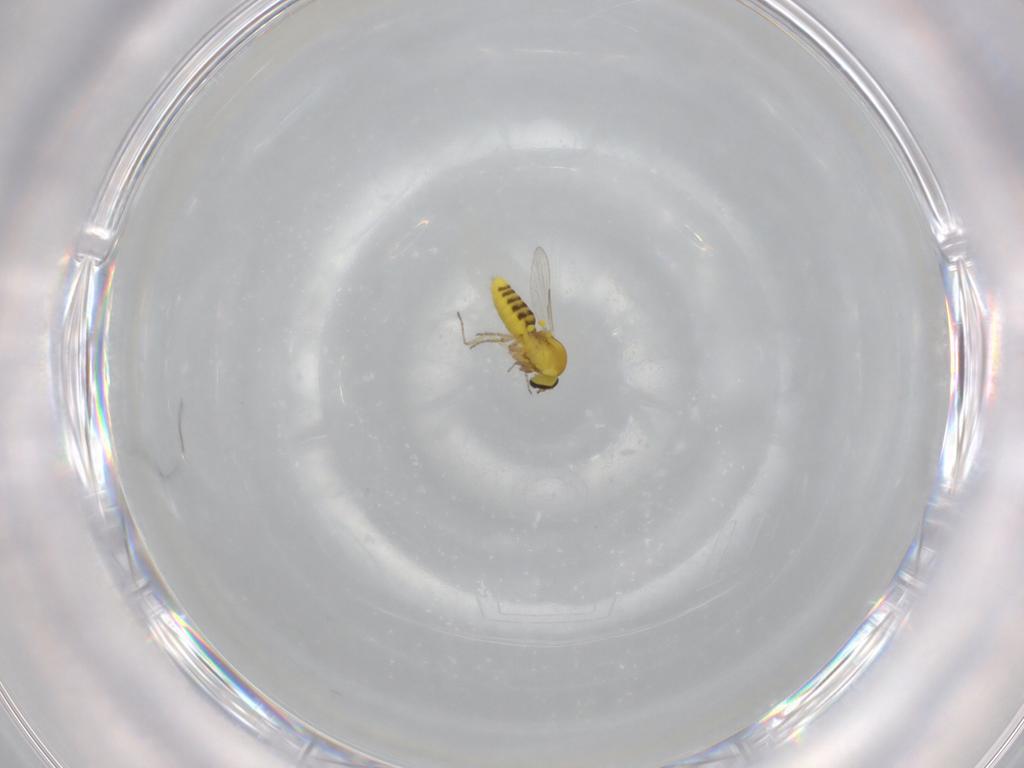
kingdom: Animalia
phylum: Arthropoda
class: Insecta
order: Diptera
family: Ceratopogonidae
